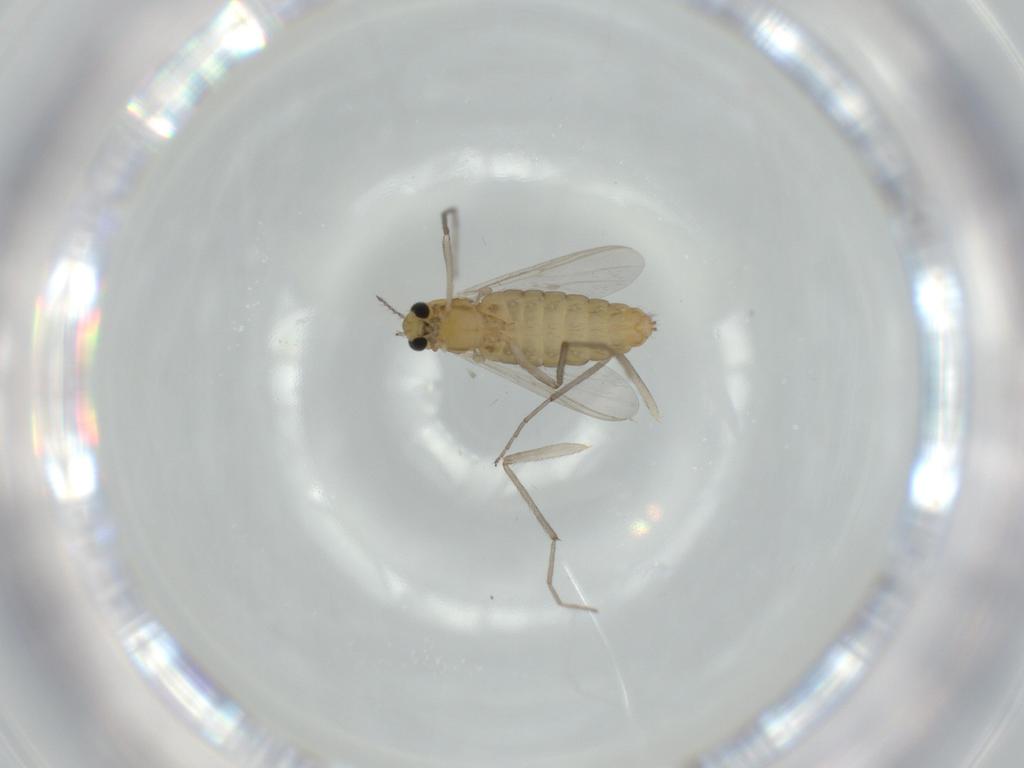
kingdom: Animalia
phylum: Arthropoda
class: Insecta
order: Diptera
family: Chironomidae
